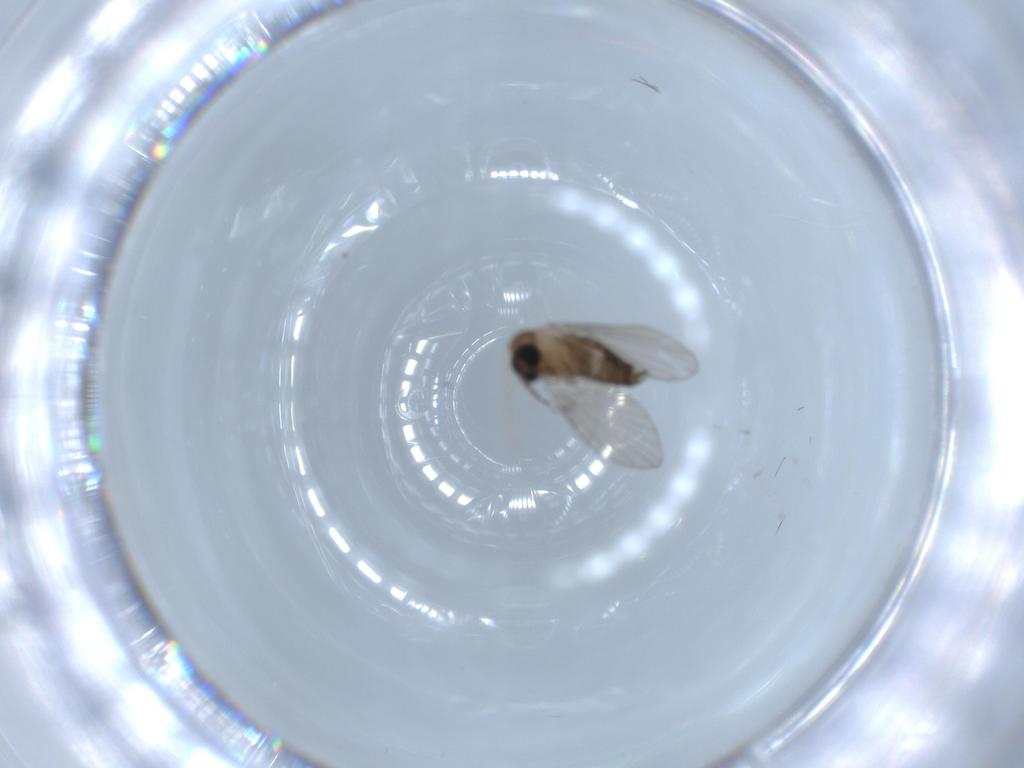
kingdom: Animalia
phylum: Arthropoda
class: Insecta
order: Diptera
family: Psychodidae
